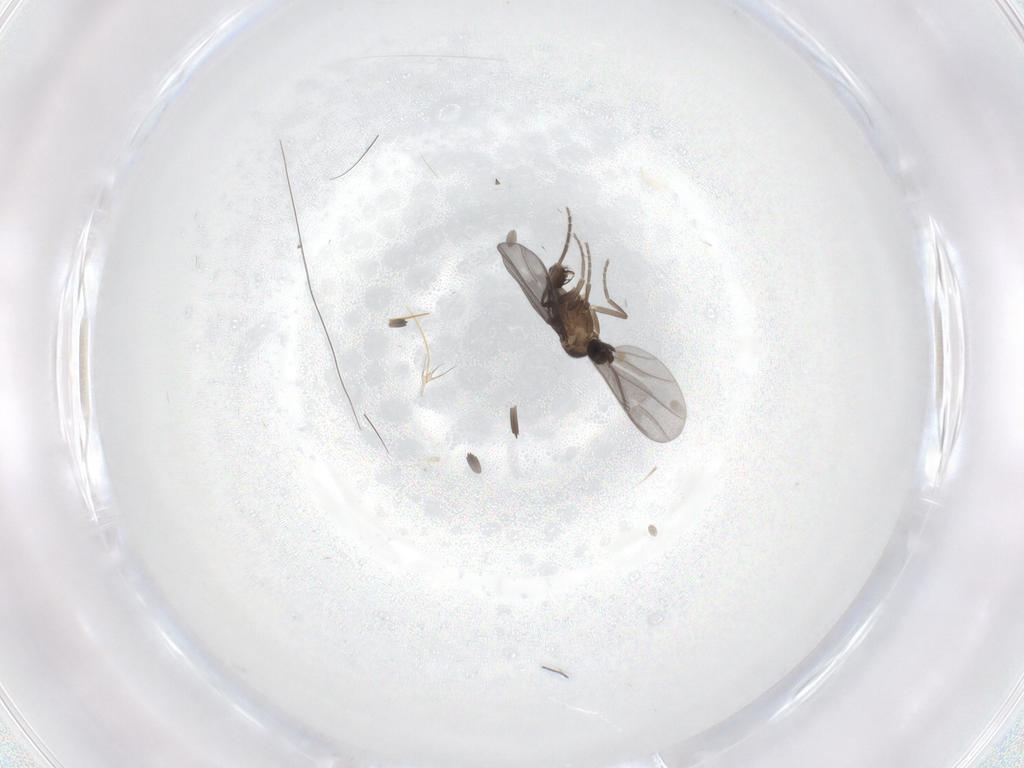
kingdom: Animalia
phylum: Arthropoda
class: Insecta
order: Diptera
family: Phoridae
